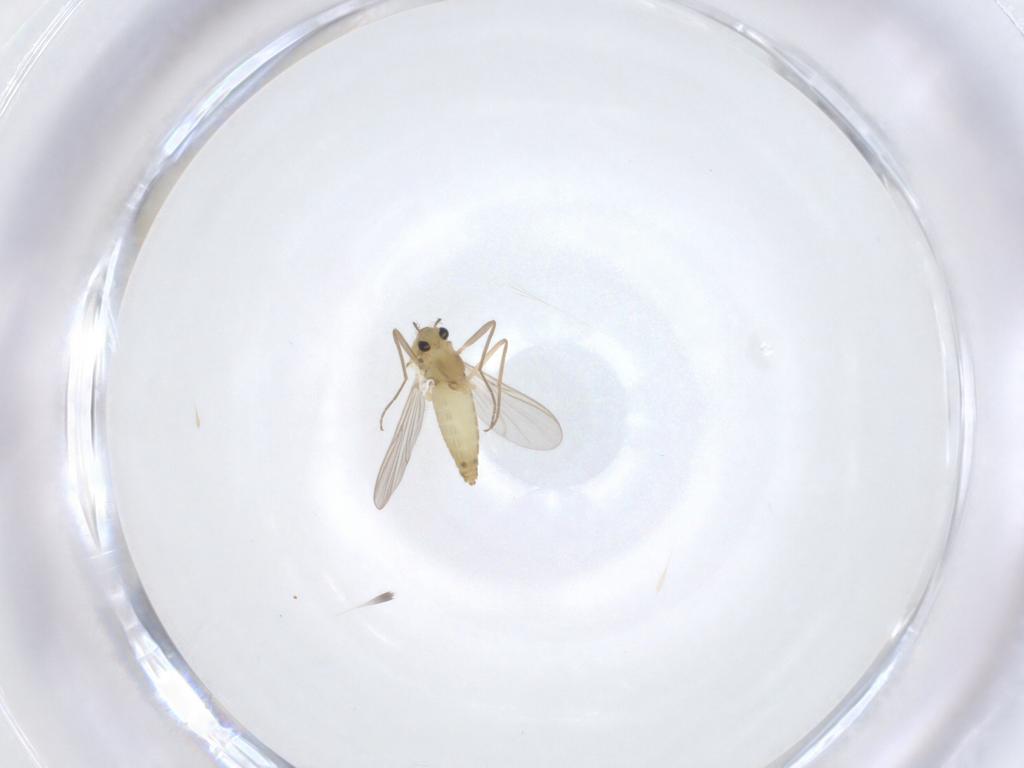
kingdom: Animalia
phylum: Arthropoda
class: Insecta
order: Diptera
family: Chironomidae
